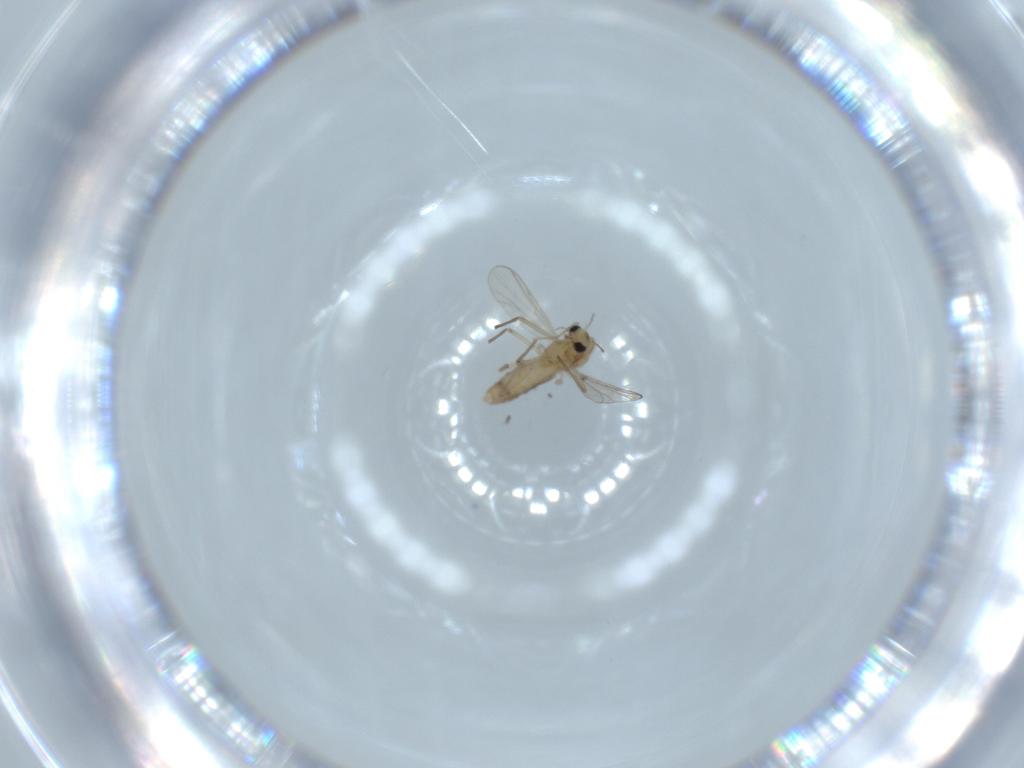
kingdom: Animalia
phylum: Arthropoda
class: Insecta
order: Diptera
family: Chironomidae
